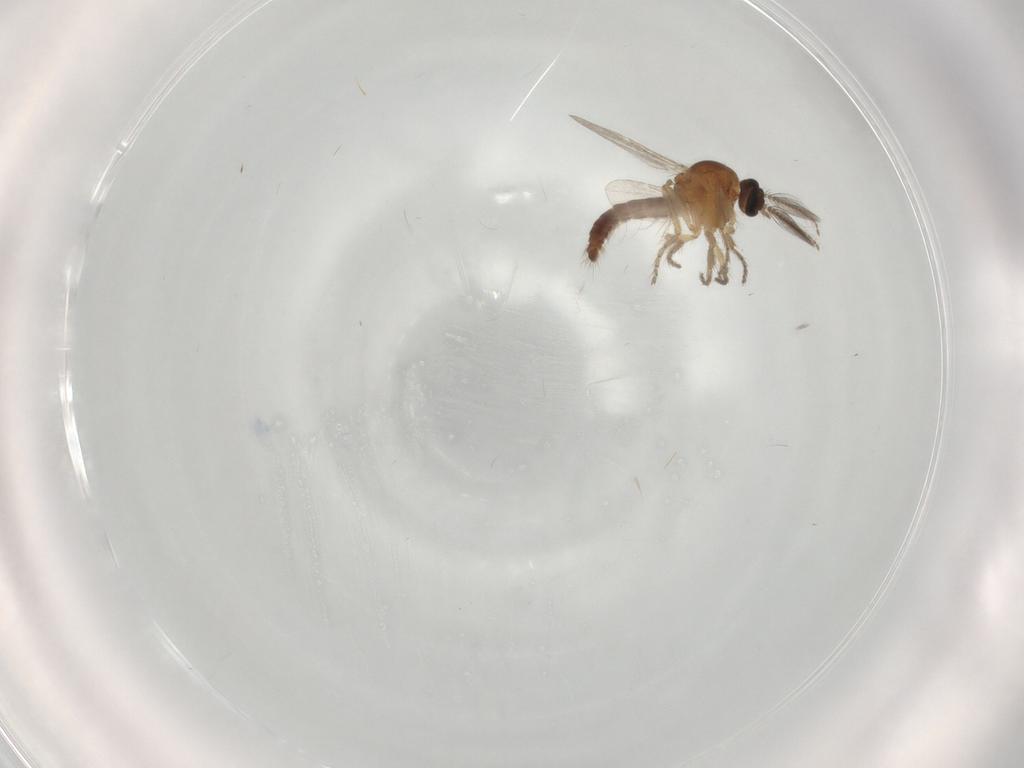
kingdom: Animalia
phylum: Arthropoda
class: Insecta
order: Diptera
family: Ceratopogonidae
